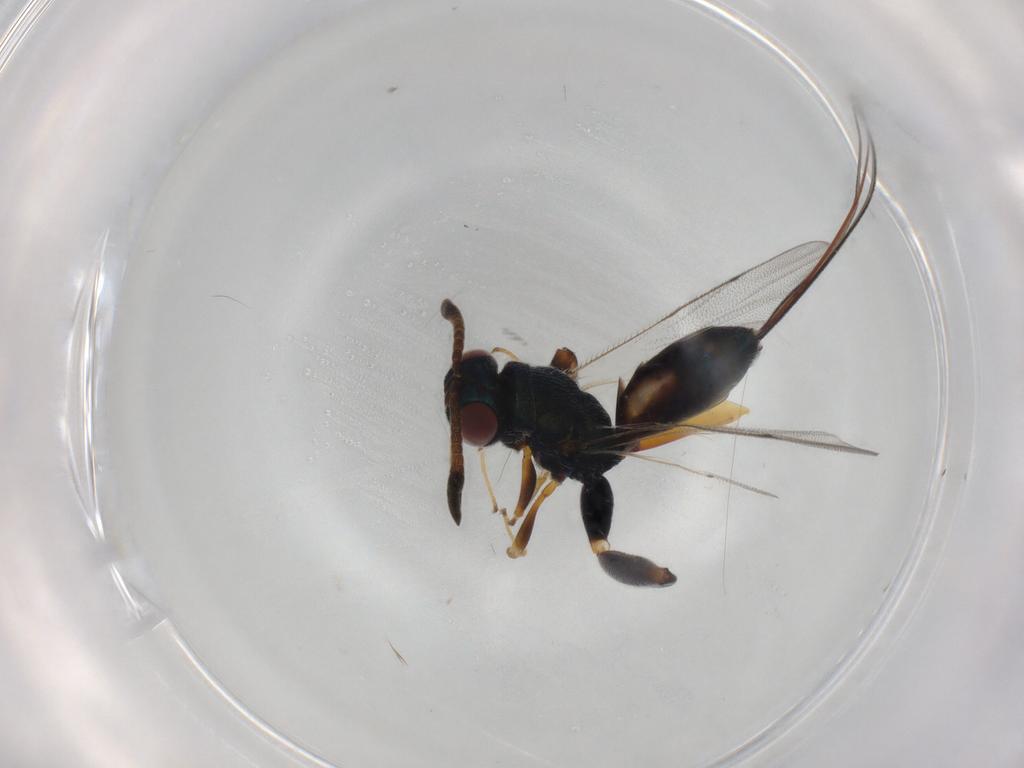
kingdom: Animalia
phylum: Arthropoda
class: Insecta
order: Hymenoptera
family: Torymidae
